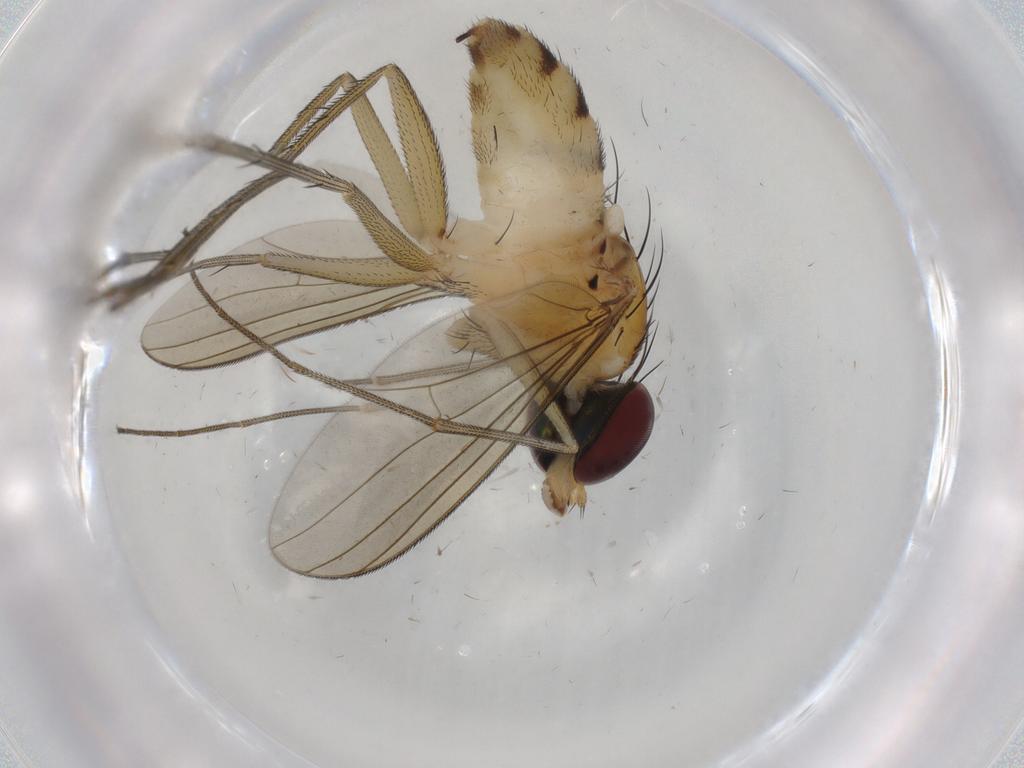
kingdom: Animalia
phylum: Arthropoda
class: Insecta
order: Diptera
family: Dolichopodidae
